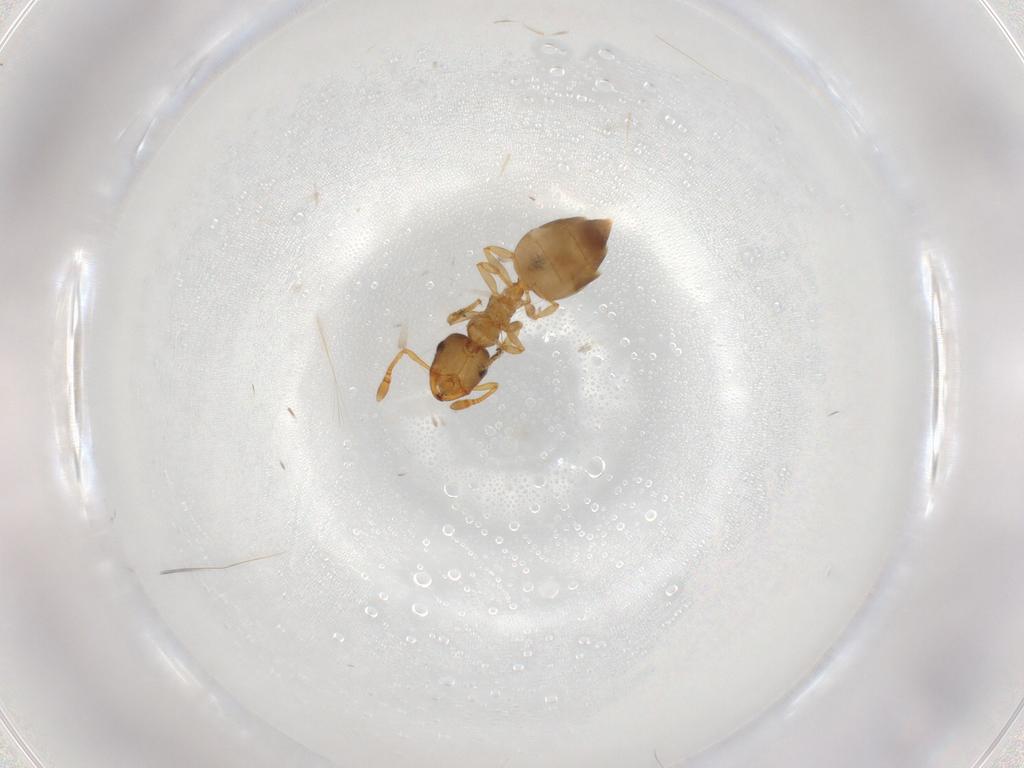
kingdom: Animalia
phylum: Arthropoda
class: Insecta
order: Hymenoptera
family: Formicidae
